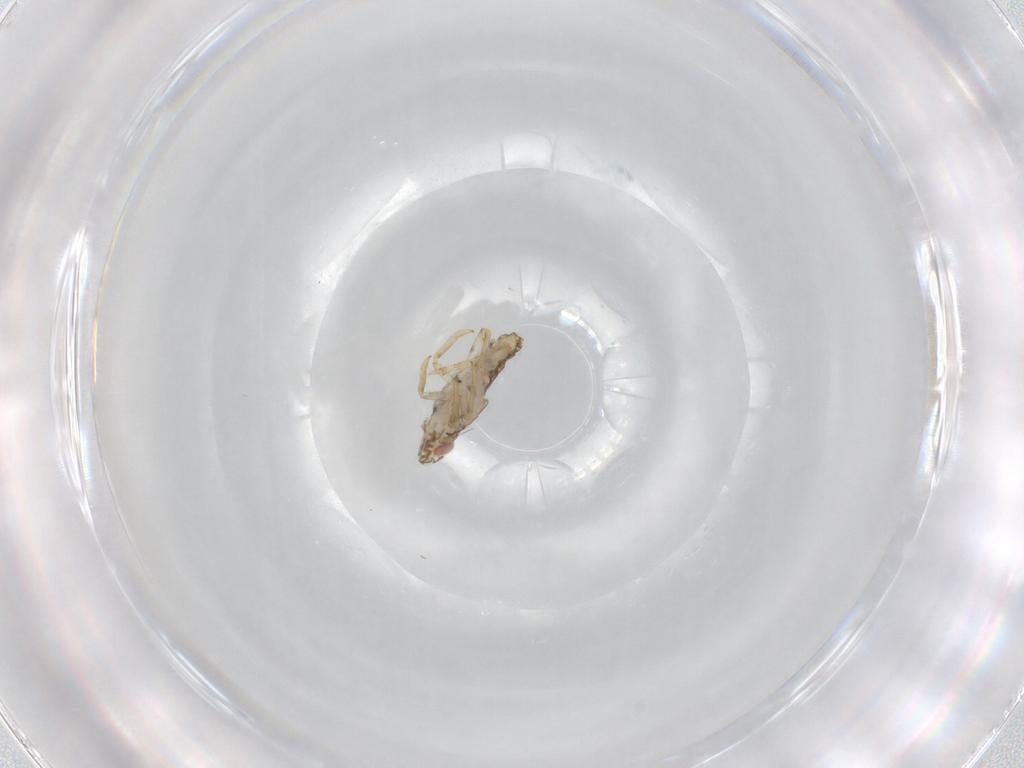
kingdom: Animalia
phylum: Arthropoda
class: Insecta
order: Hemiptera
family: Delphacidae
